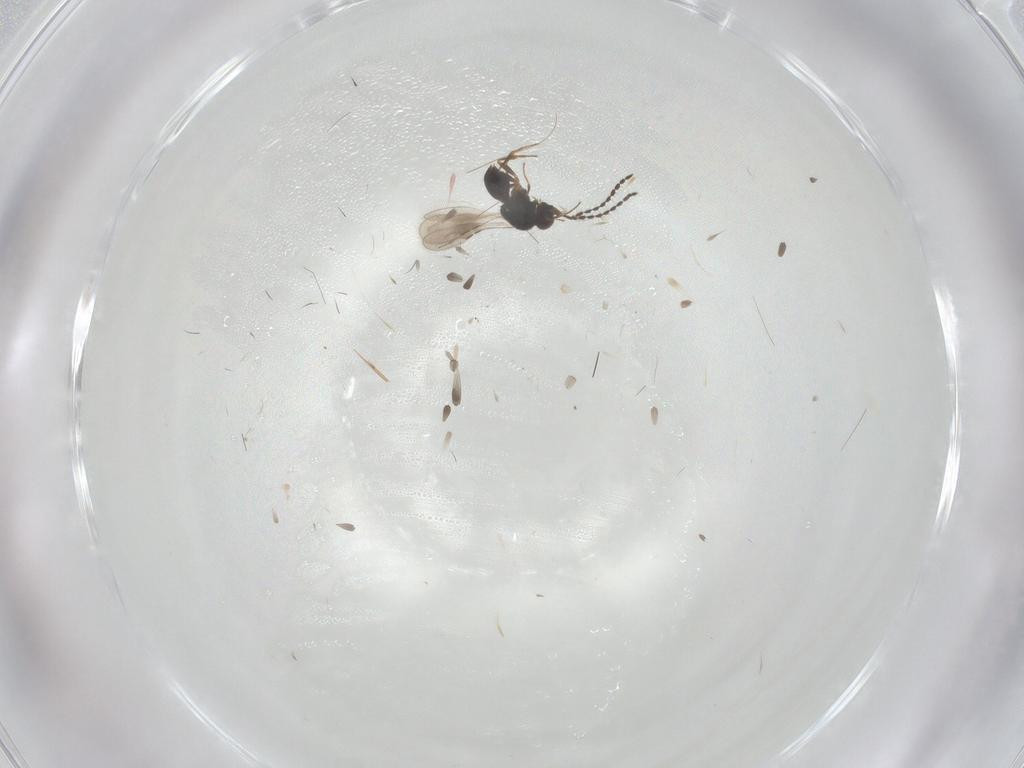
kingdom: Animalia
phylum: Arthropoda
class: Insecta
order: Hymenoptera
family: Ceraphronidae
